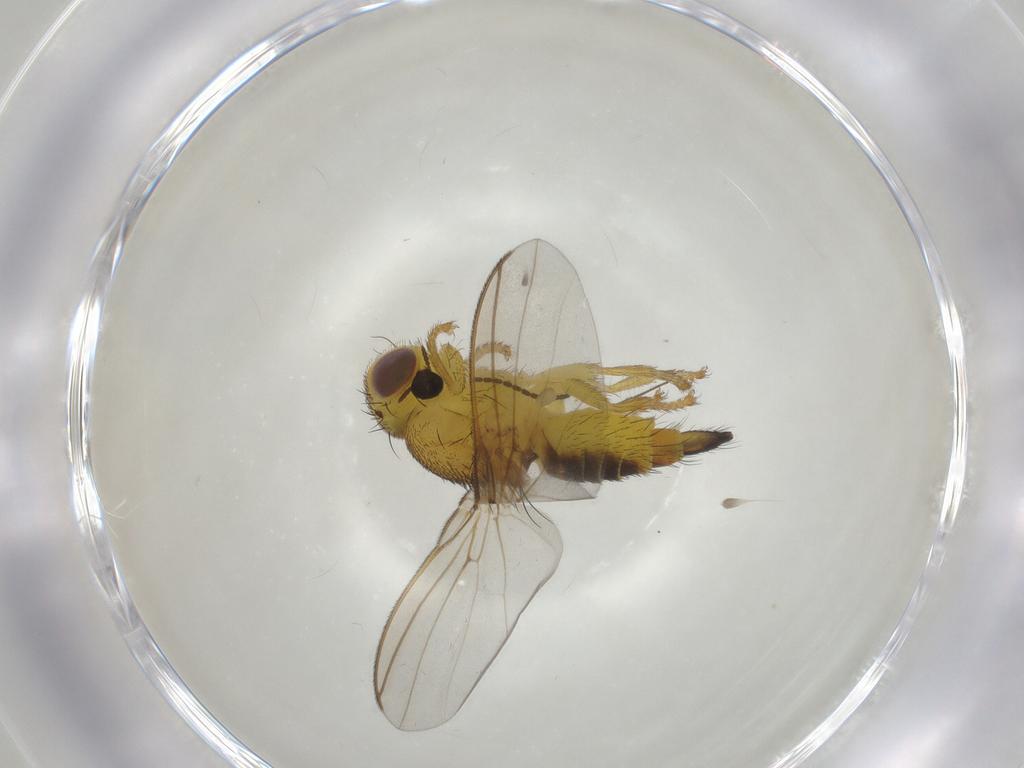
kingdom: Animalia
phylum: Arthropoda
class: Insecta
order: Diptera
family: Fergusoninidae
